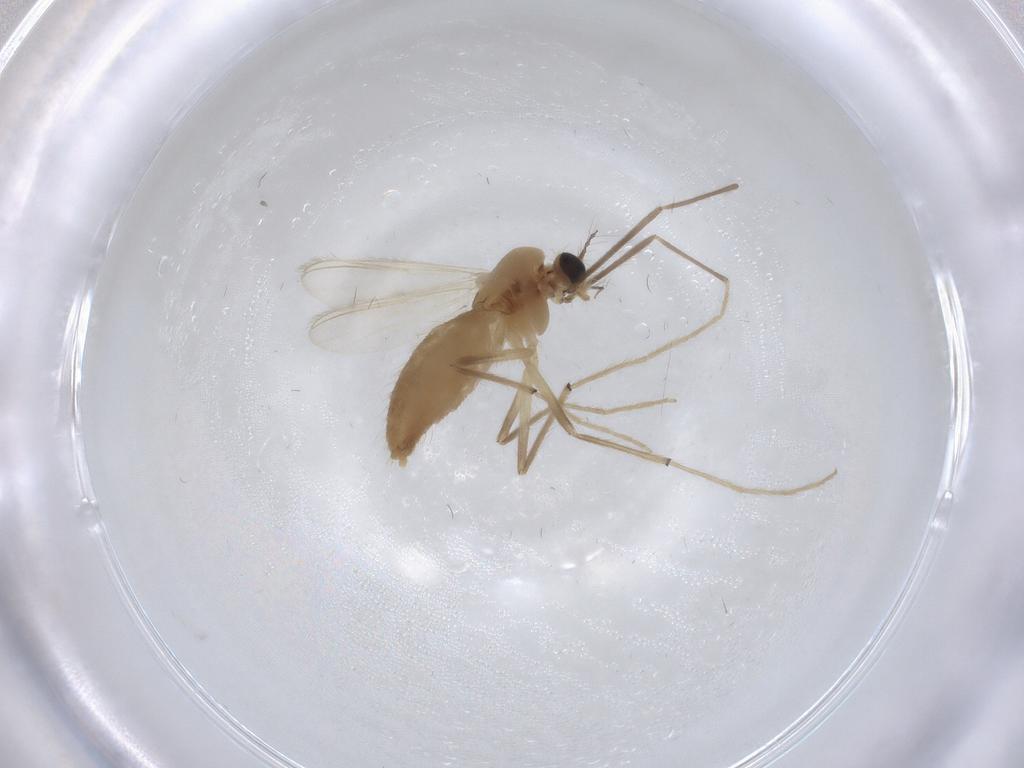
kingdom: Animalia
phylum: Arthropoda
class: Insecta
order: Diptera
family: Chironomidae
